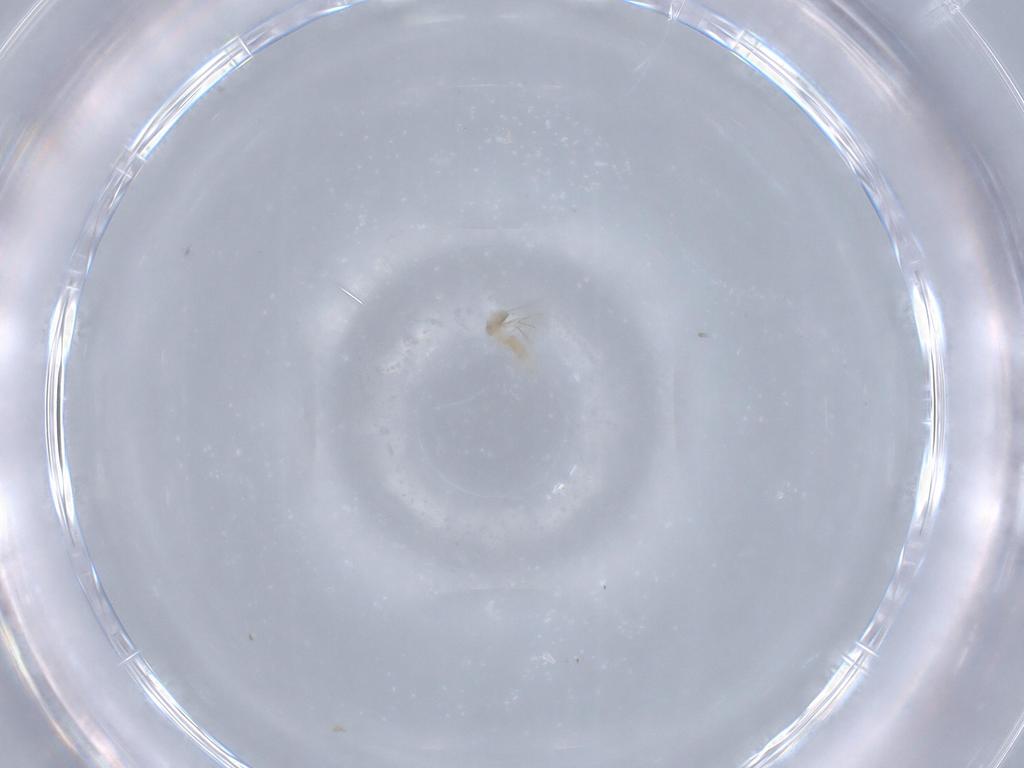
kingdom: Animalia
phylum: Arthropoda
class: Insecta
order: Diptera
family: Cecidomyiidae
